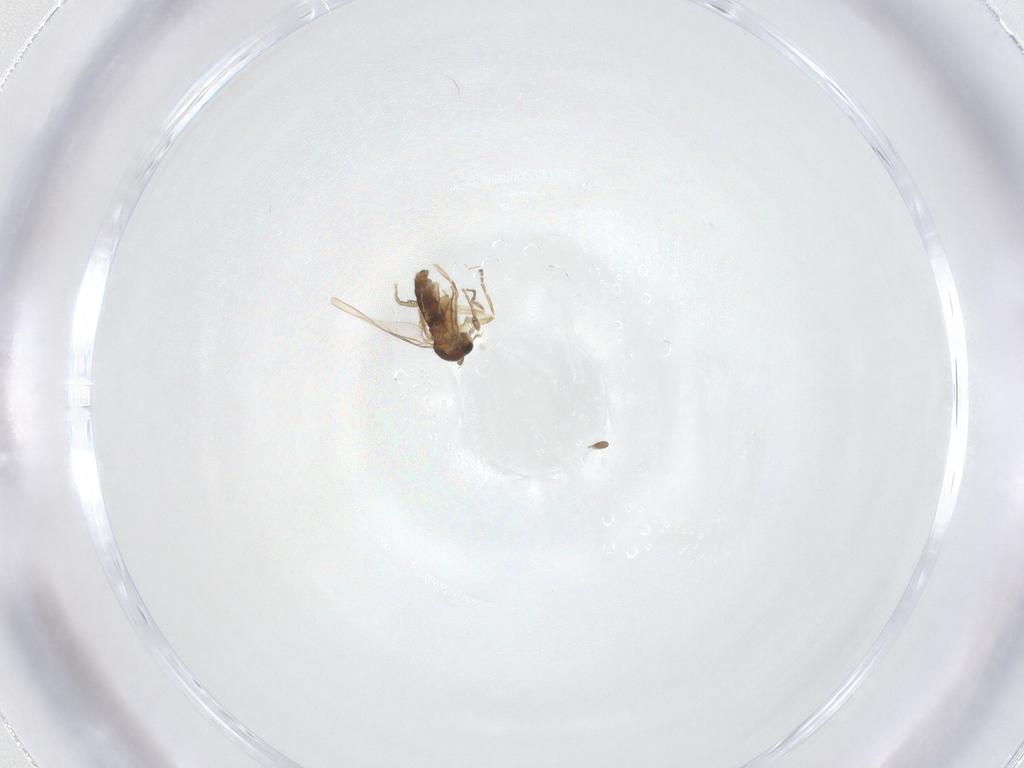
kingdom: Animalia
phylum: Arthropoda
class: Insecta
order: Diptera
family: Phoridae
